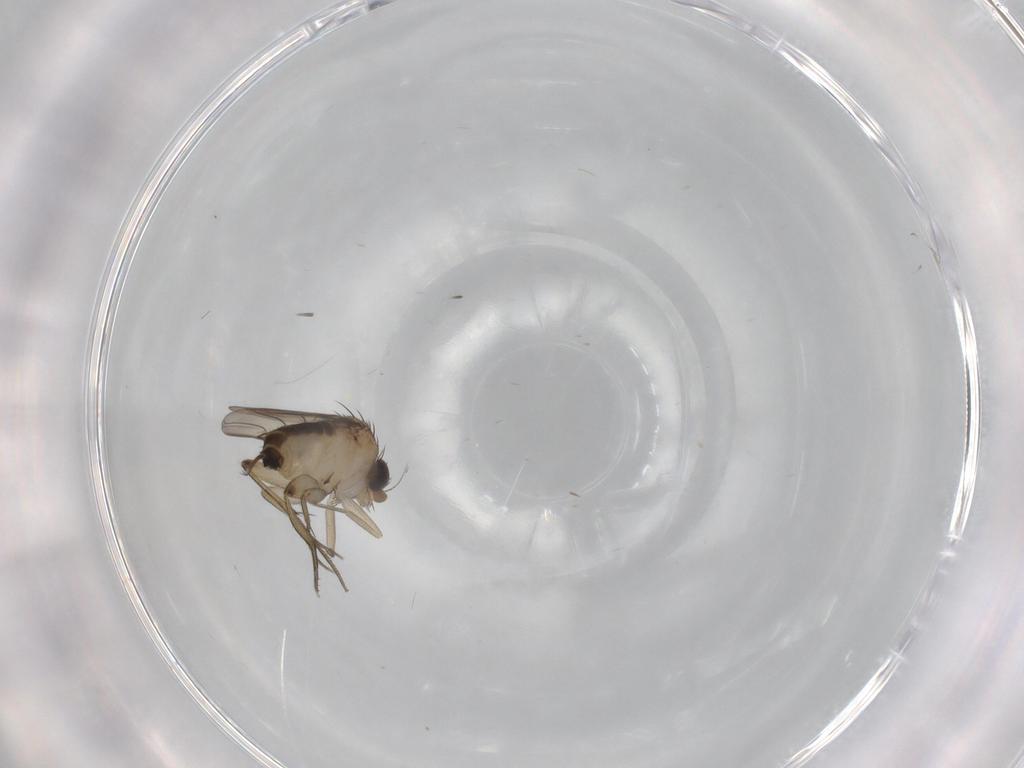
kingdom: Animalia
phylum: Arthropoda
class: Insecta
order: Diptera
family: Phoridae
